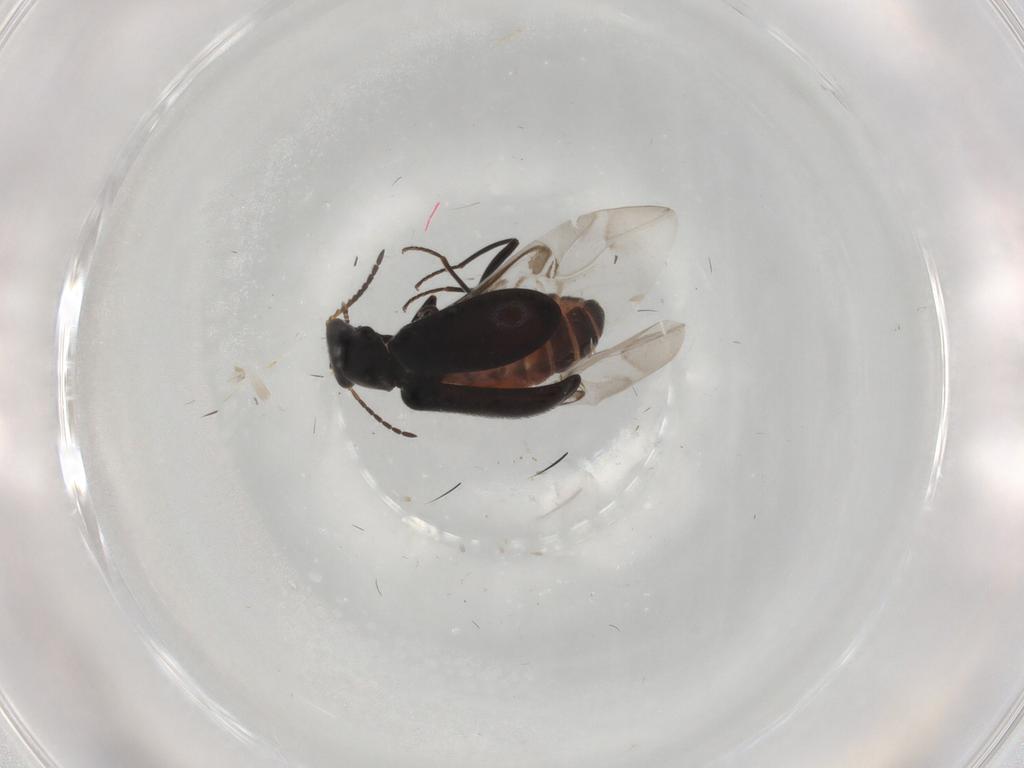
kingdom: Animalia
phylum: Arthropoda
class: Insecta
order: Coleoptera
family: Melyridae
